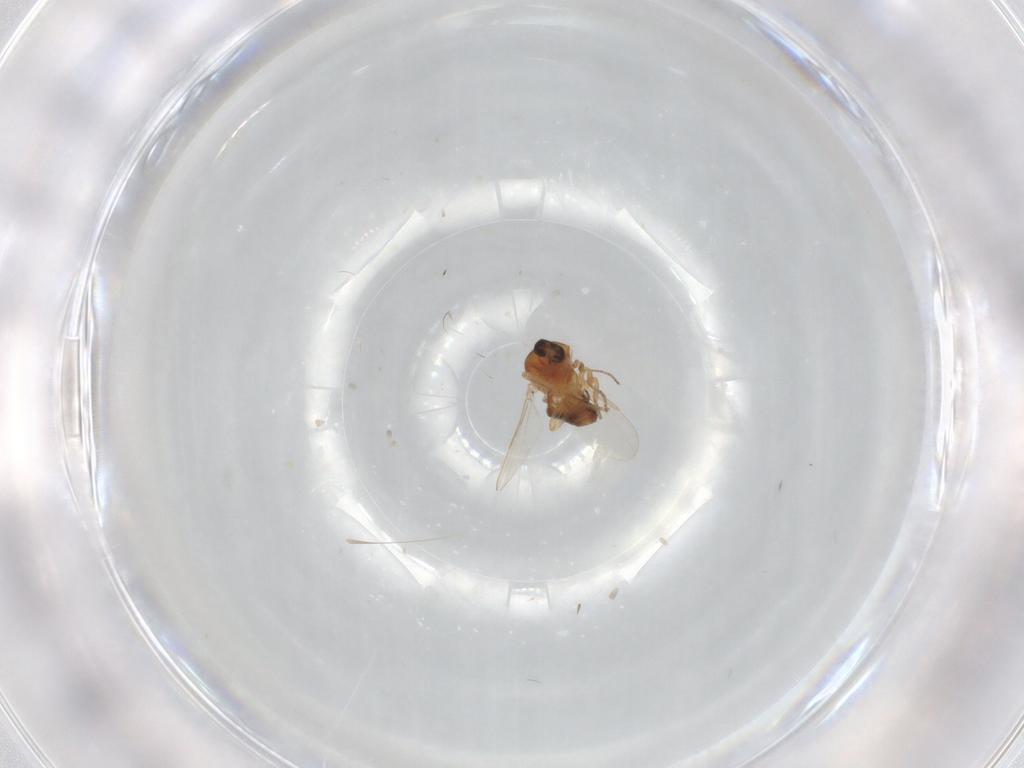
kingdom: Animalia
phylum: Arthropoda
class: Insecta
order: Diptera
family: Ceratopogonidae
